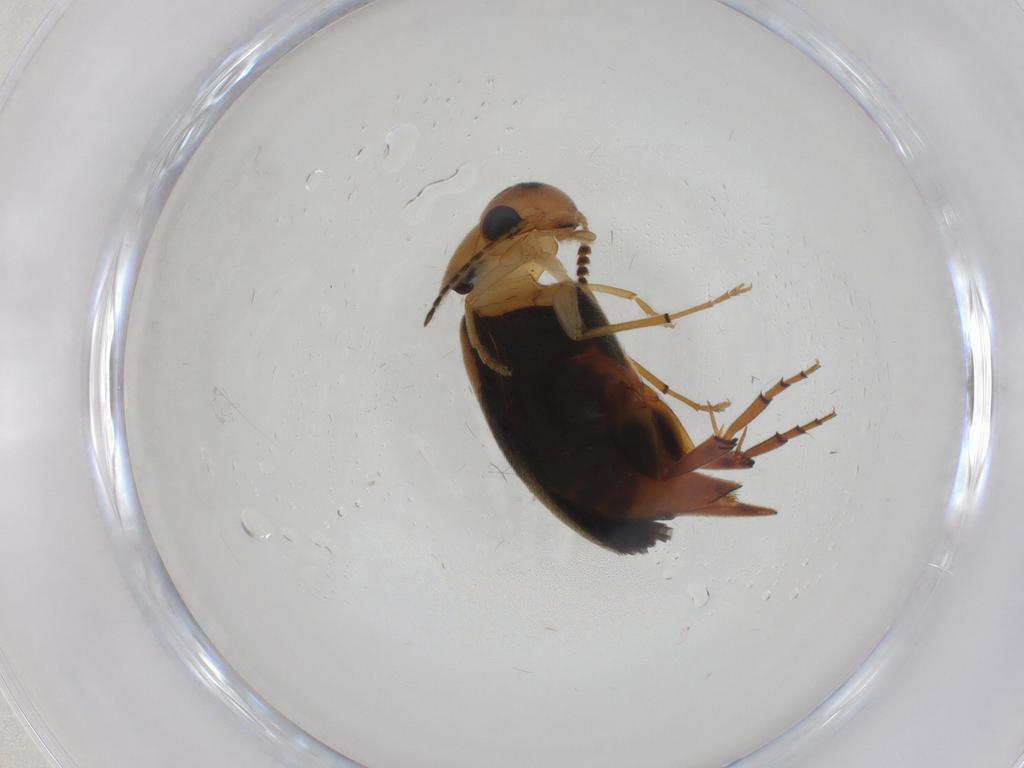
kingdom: Animalia
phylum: Arthropoda
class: Insecta
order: Coleoptera
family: Mordellidae
